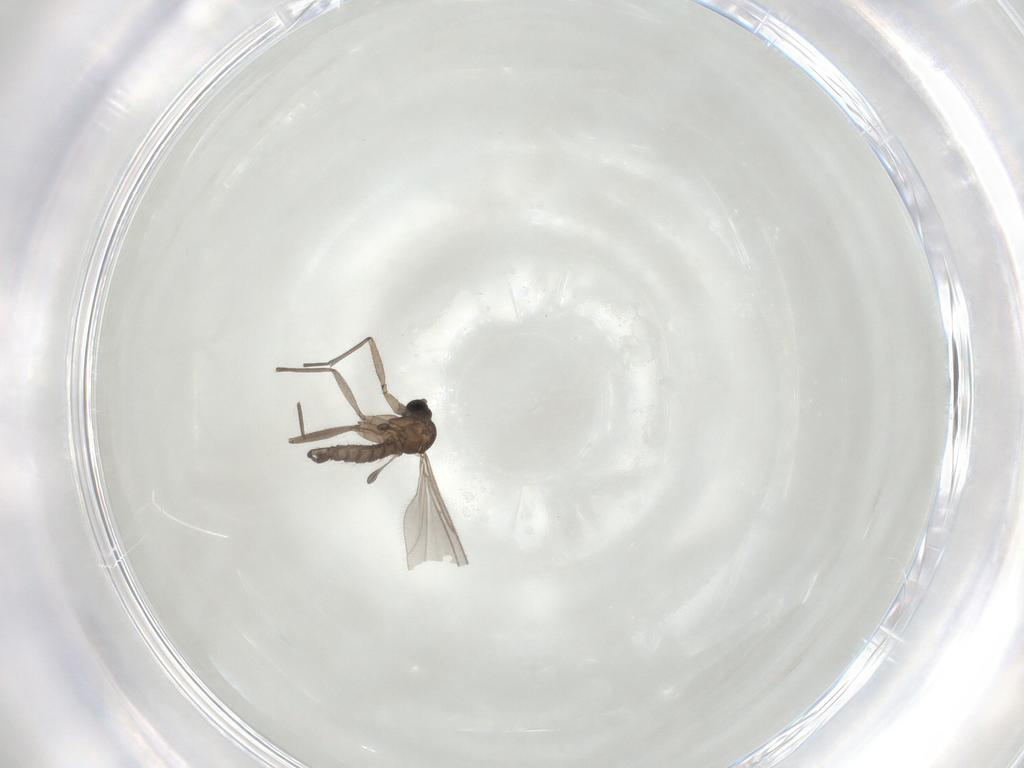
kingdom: Animalia
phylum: Arthropoda
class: Insecta
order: Diptera
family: Sciaridae
